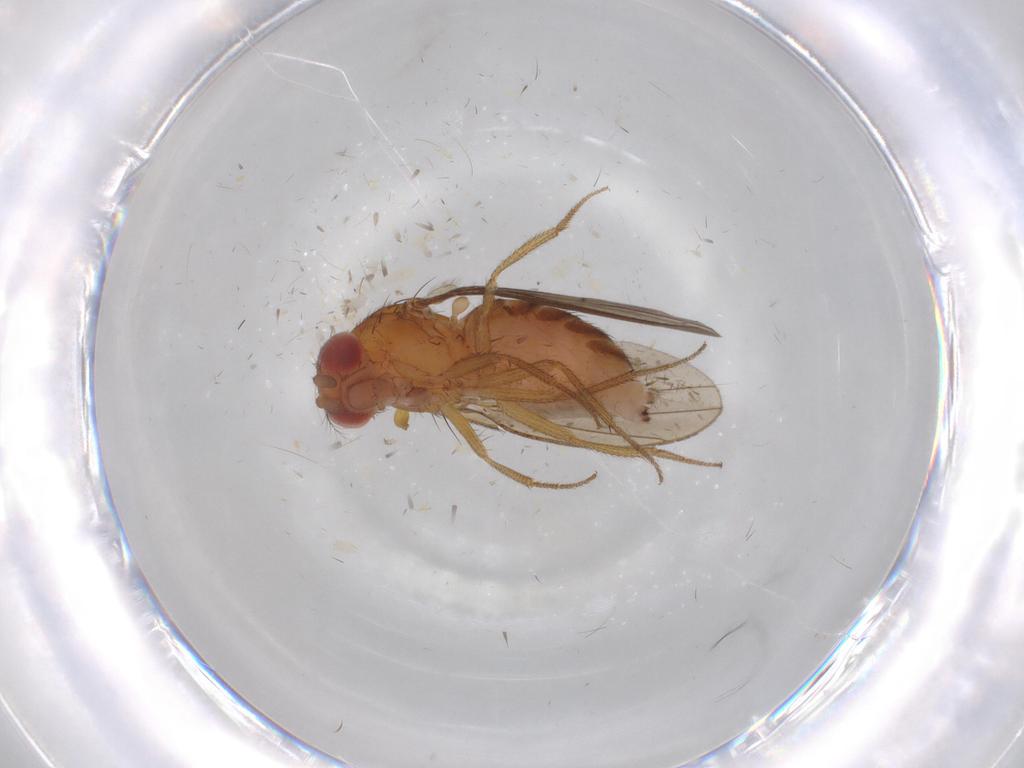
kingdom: Animalia
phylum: Arthropoda
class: Insecta
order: Diptera
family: Drosophilidae
